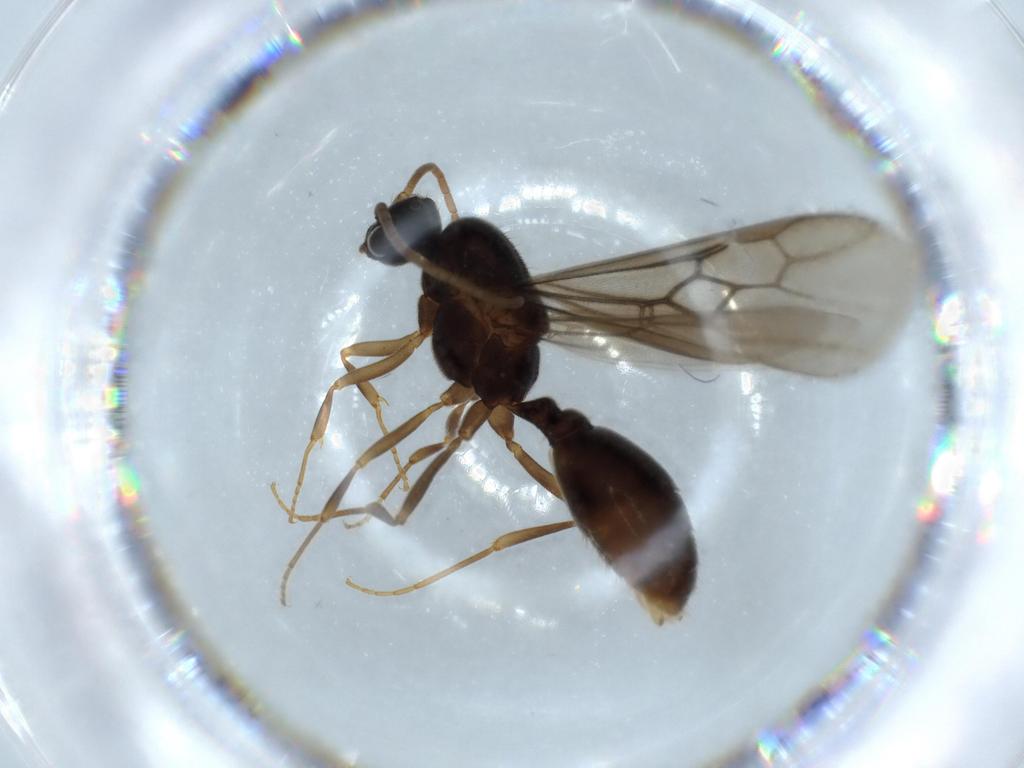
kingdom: Animalia
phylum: Arthropoda
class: Insecta
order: Hymenoptera
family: Formicidae
